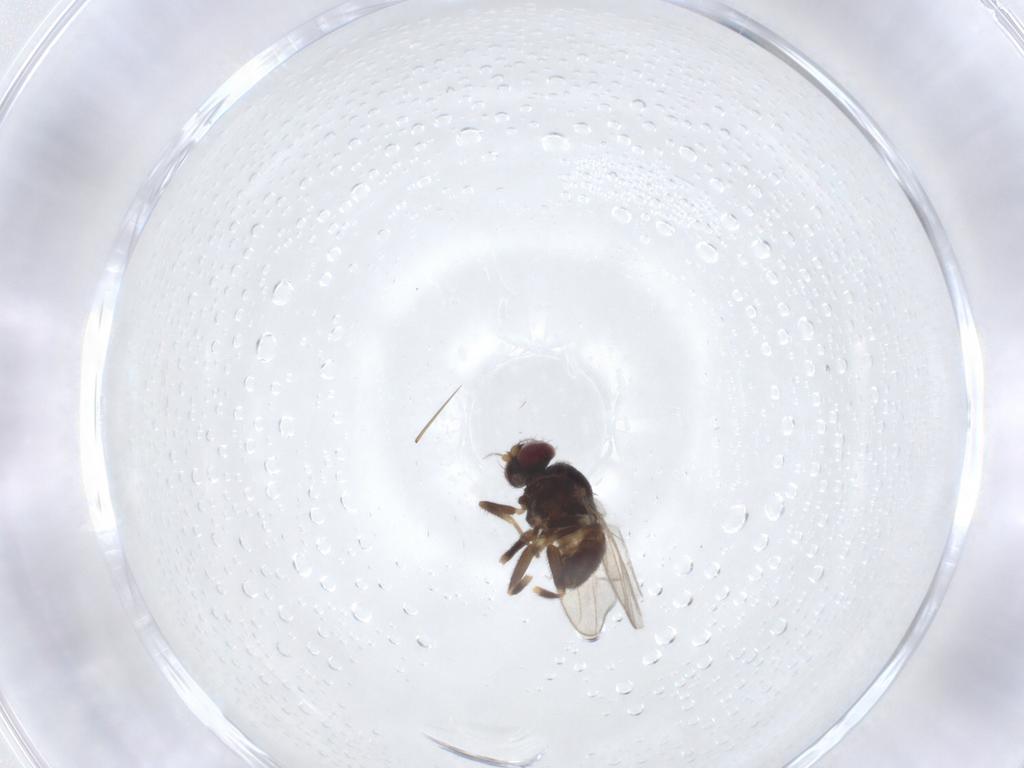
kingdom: Animalia
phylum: Arthropoda
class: Insecta
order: Diptera
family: Chloropidae
